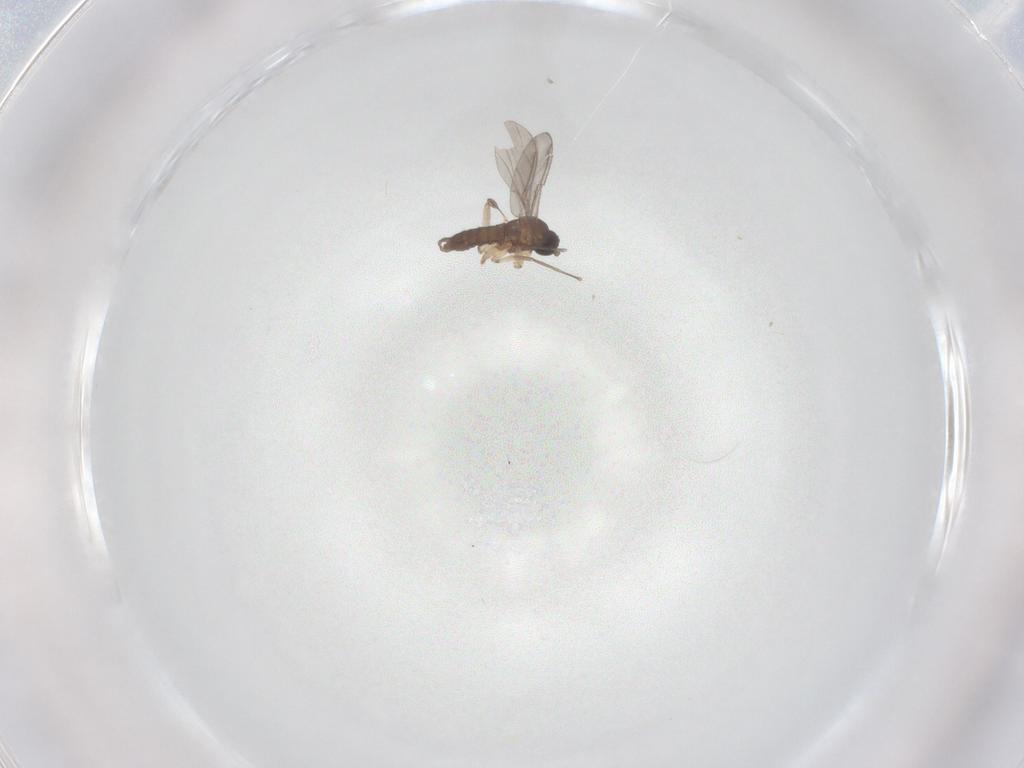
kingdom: Animalia
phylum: Arthropoda
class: Insecta
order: Diptera
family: Sciaridae
